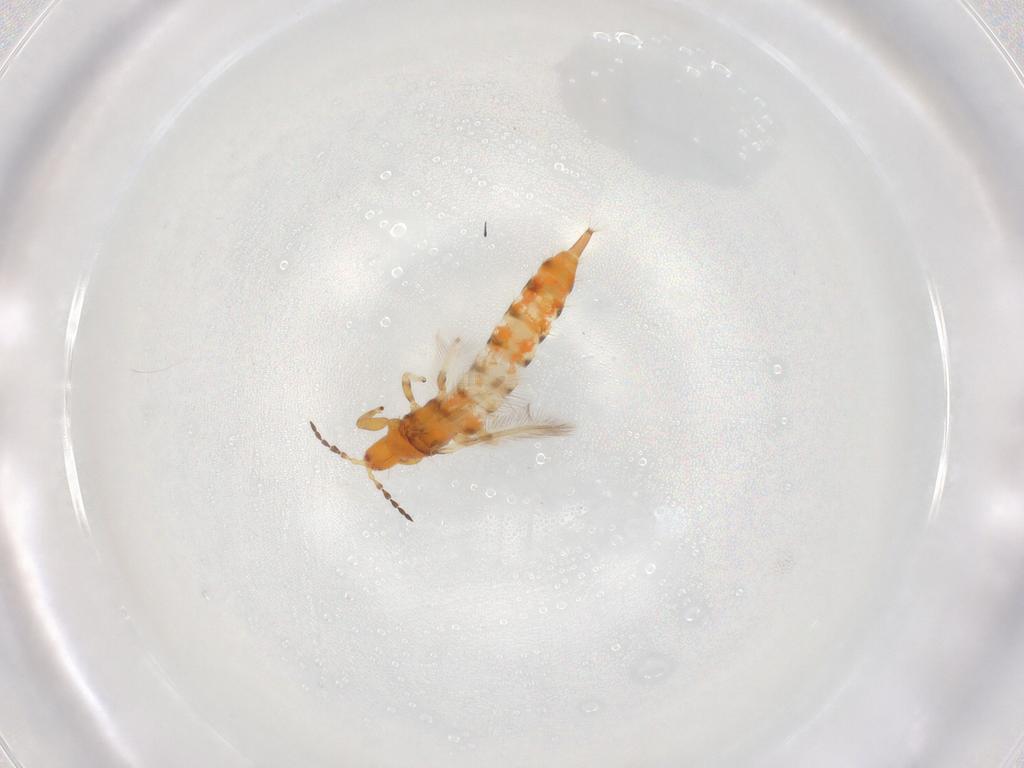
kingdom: Animalia
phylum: Arthropoda
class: Insecta
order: Thysanoptera
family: Phlaeothripidae
